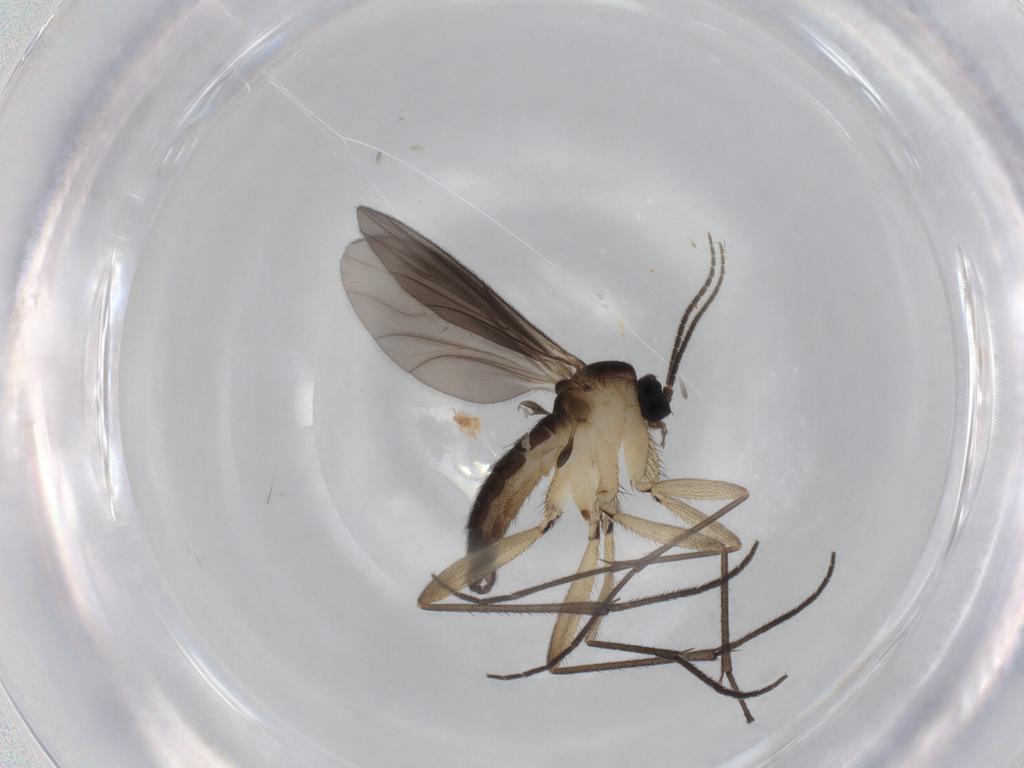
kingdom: Animalia
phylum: Arthropoda
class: Insecta
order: Diptera
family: Sciaridae
